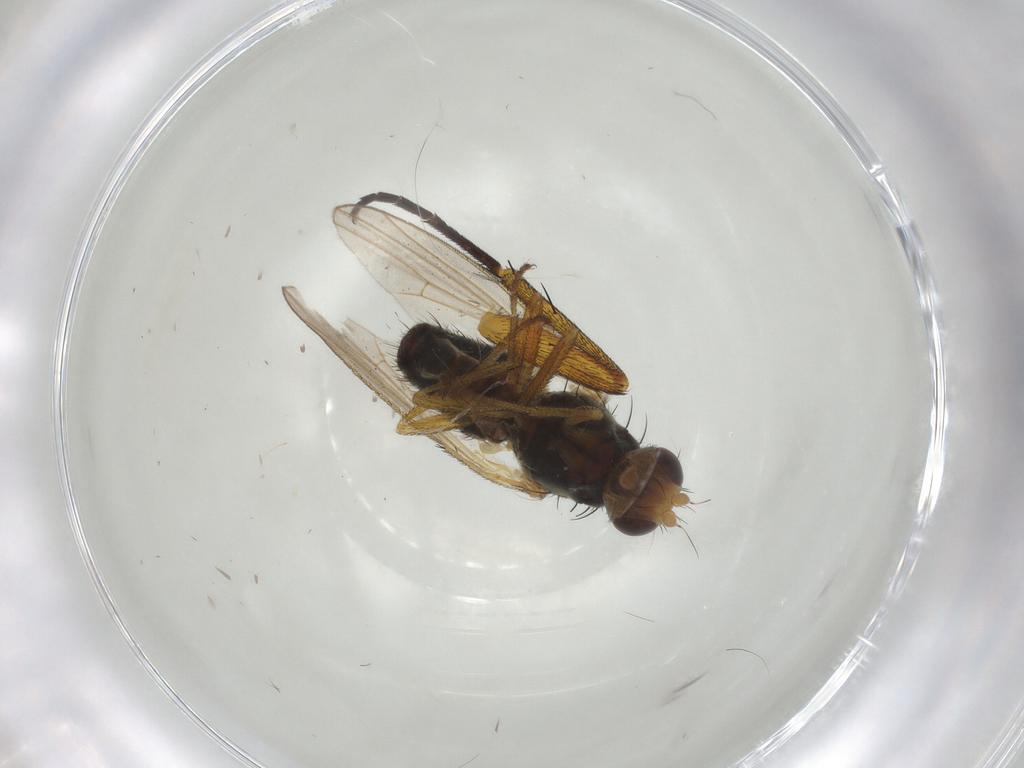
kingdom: Animalia
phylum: Arthropoda
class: Insecta
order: Diptera
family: Heleomyzidae
